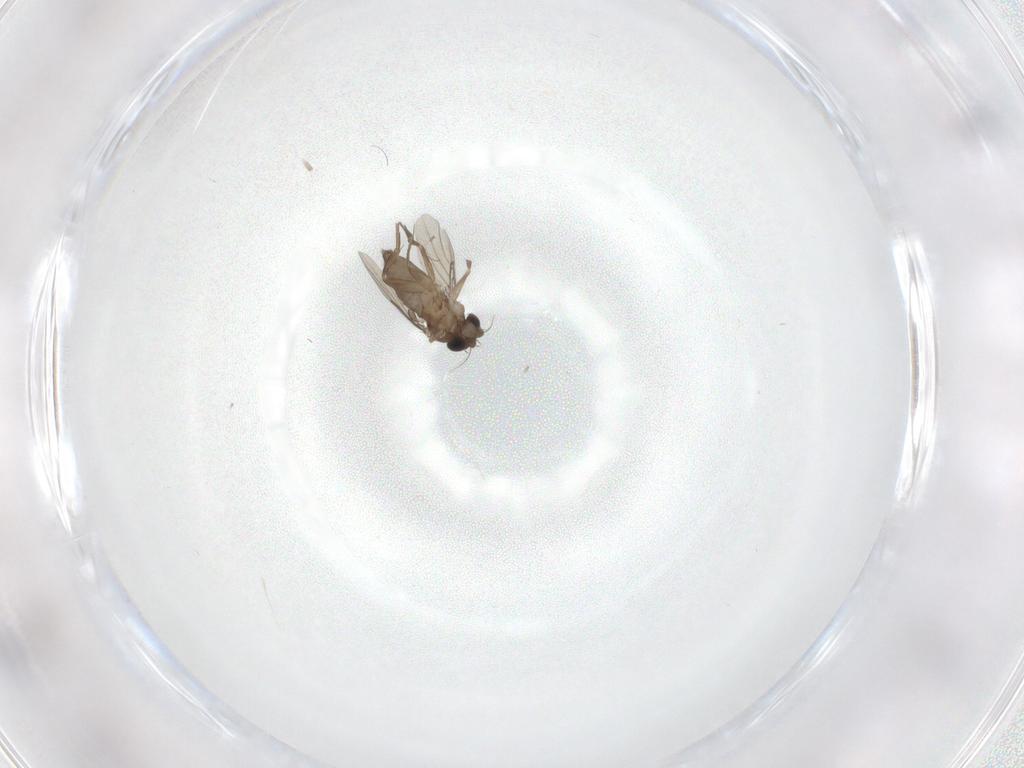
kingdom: Animalia
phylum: Arthropoda
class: Insecta
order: Diptera
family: Phoridae
